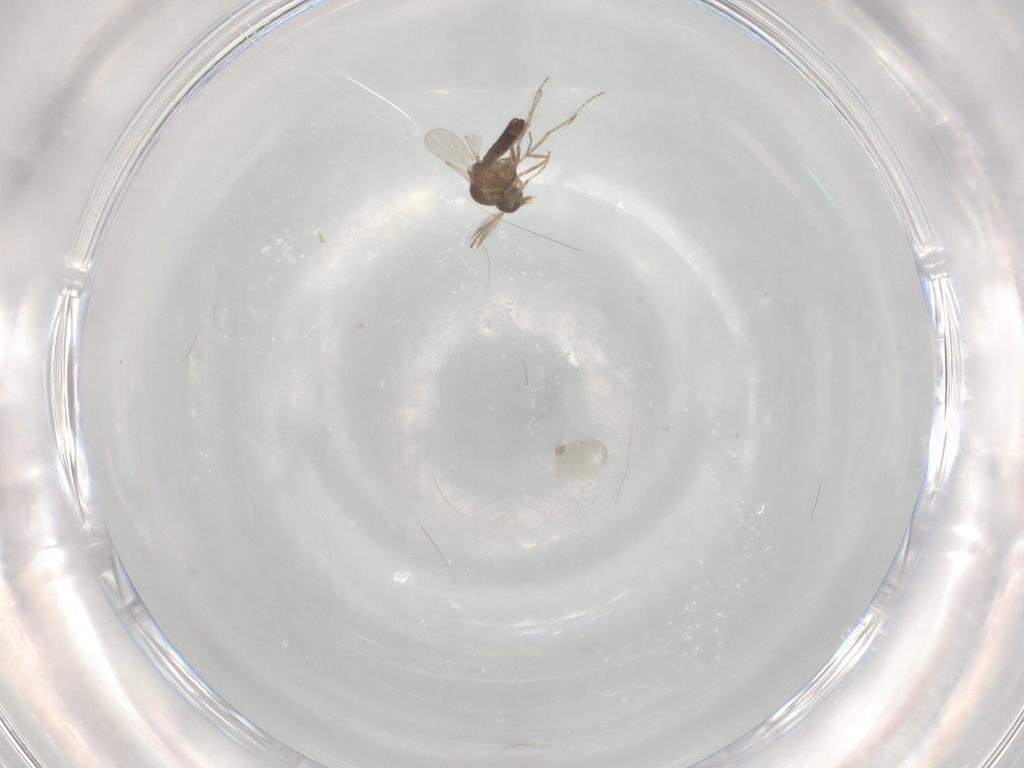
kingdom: Animalia
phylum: Arthropoda
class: Insecta
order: Diptera
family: Ceratopogonidae
